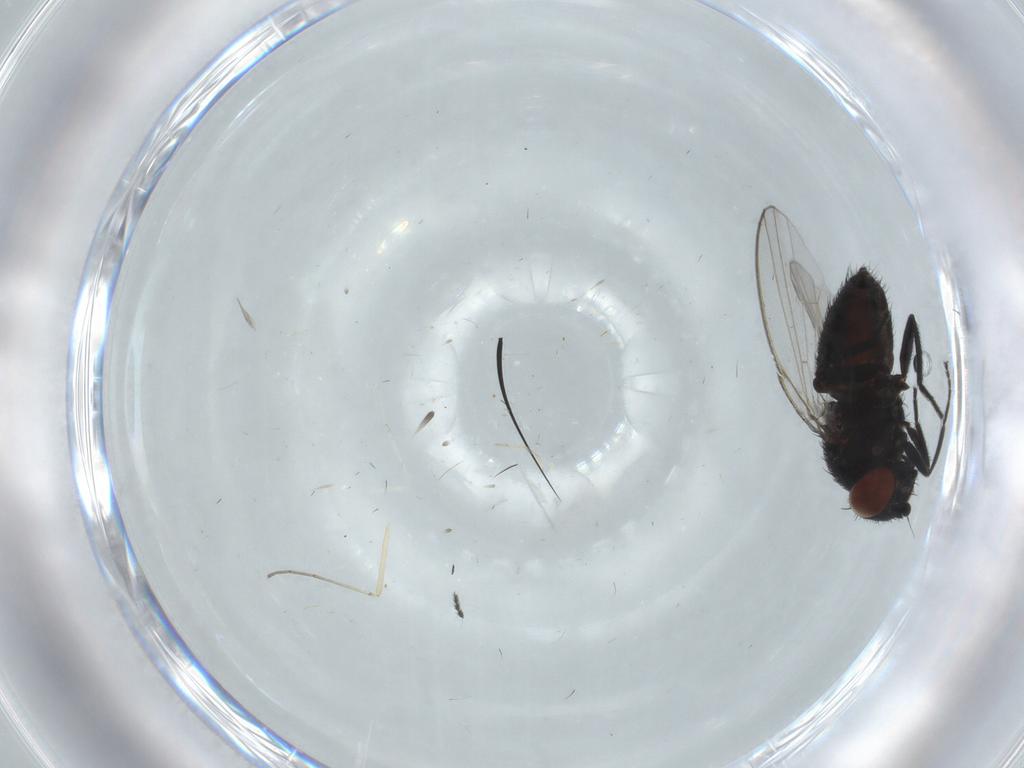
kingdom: Animalia
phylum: Arthropoda
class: Insecta
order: Diptera
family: Milichiidae
